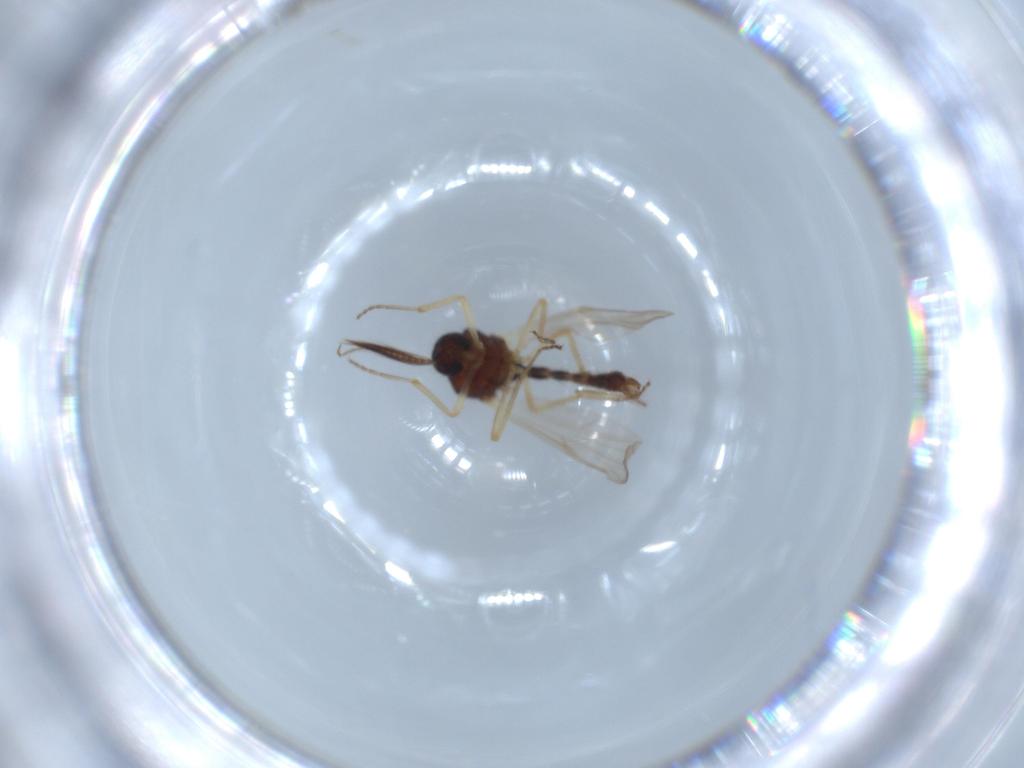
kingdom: Animalia
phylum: Arthropoda
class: Insecta
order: Diptera
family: Ceratopogonidae
